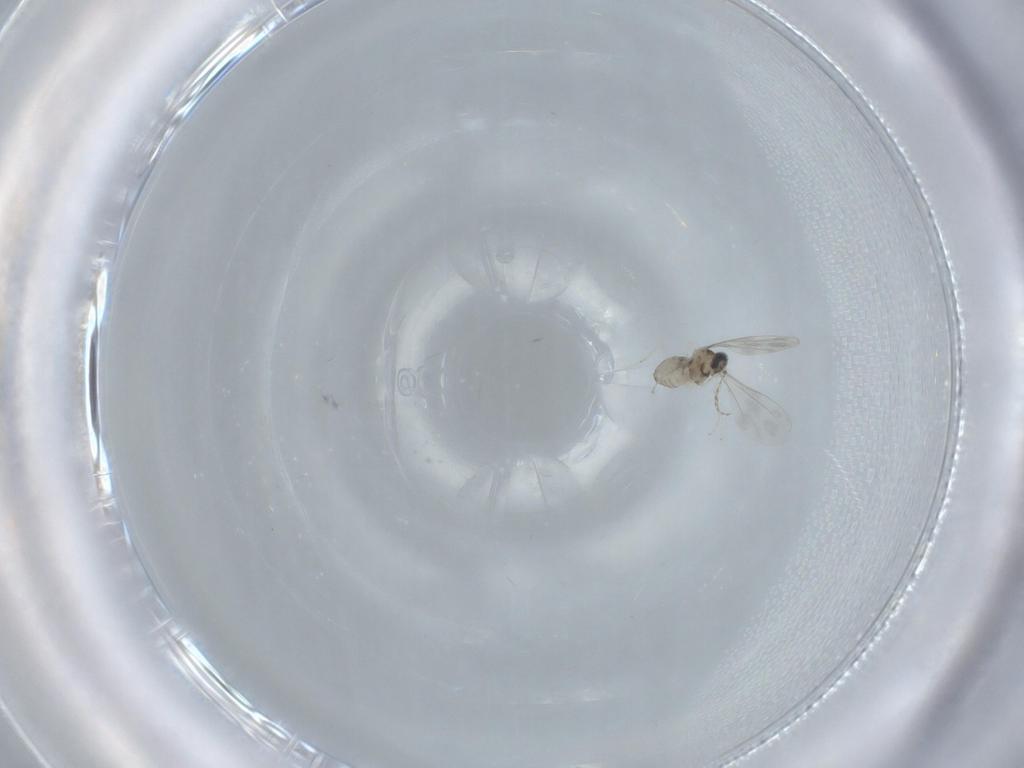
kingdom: Animalia
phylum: Arthropoda
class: Insecta
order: Diptera
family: Cecidomyiidae
